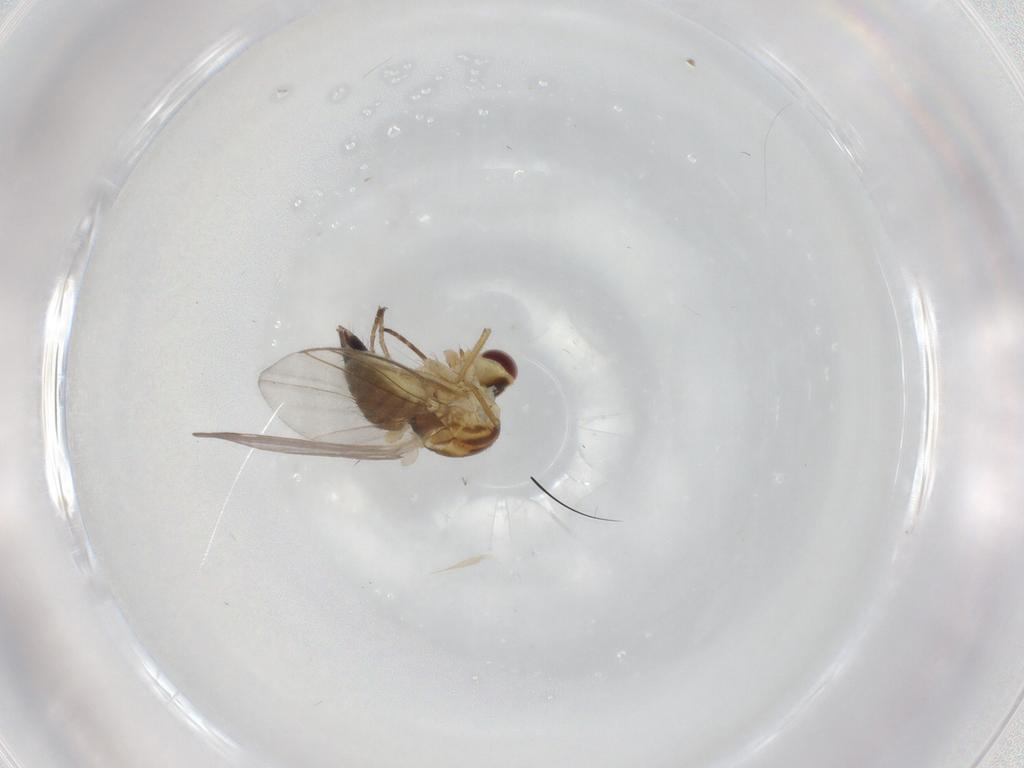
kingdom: Animalia
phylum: Arthropoda
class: Insecta
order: Diptera
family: Agromyzidae
